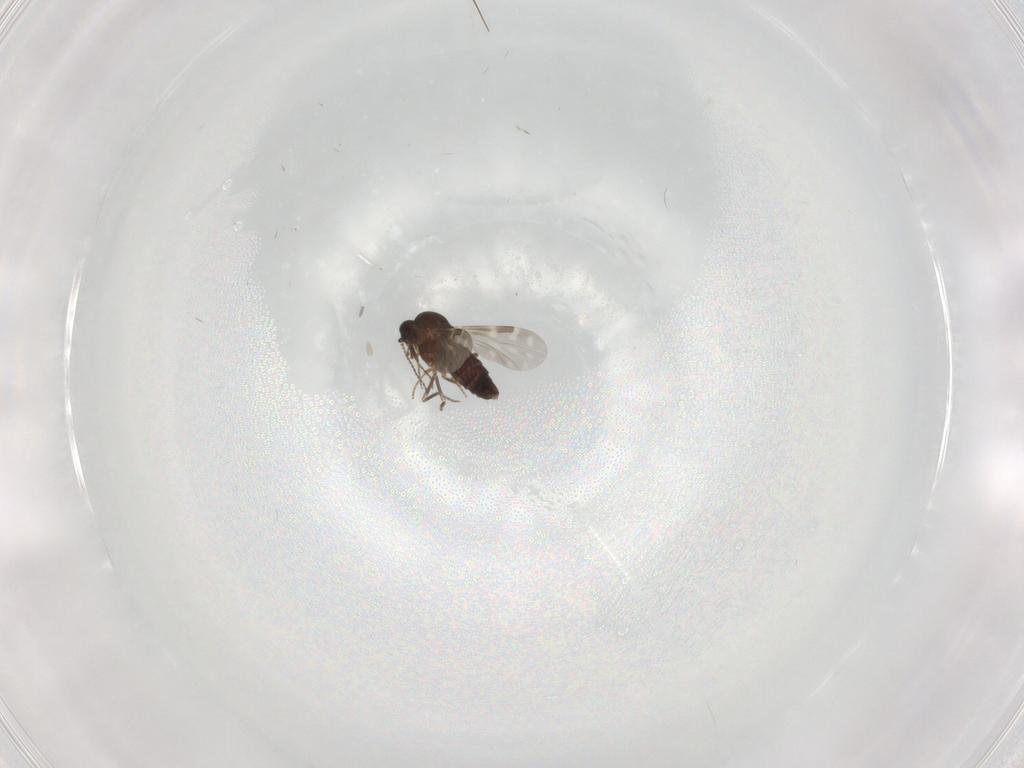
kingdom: Animalia
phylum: Arthropoda
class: Insecta
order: Diptera
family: Ceratopogonidae
